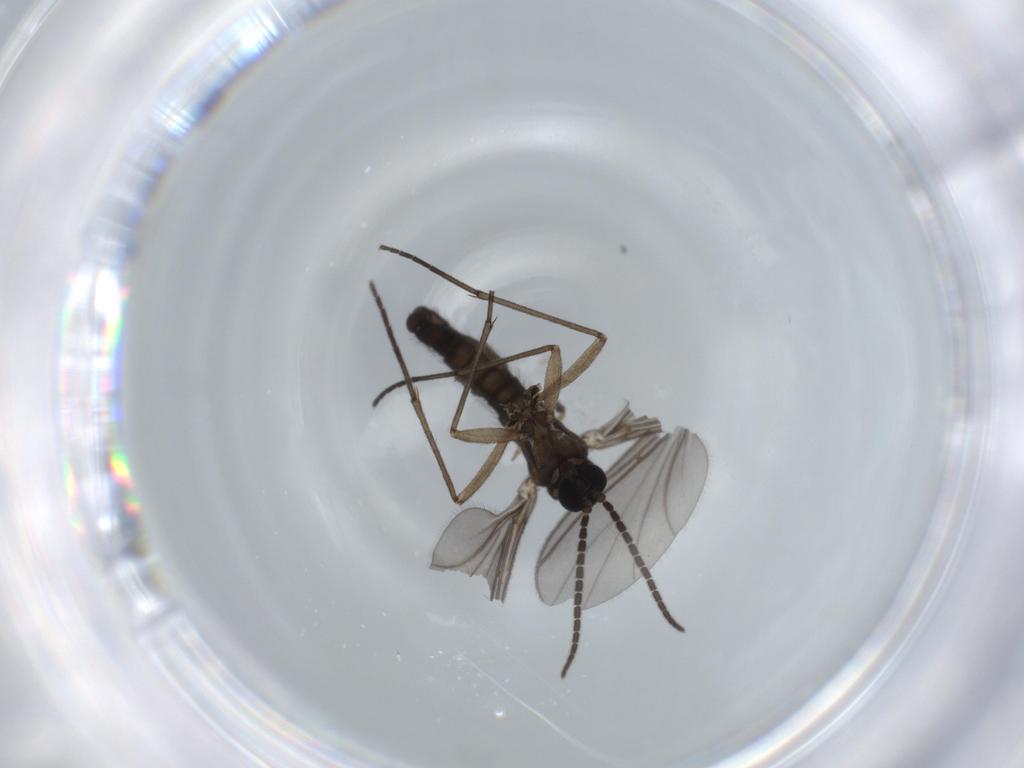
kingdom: Animalia
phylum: Arthropoda
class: Insecta
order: Diptera
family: Sciaridae
